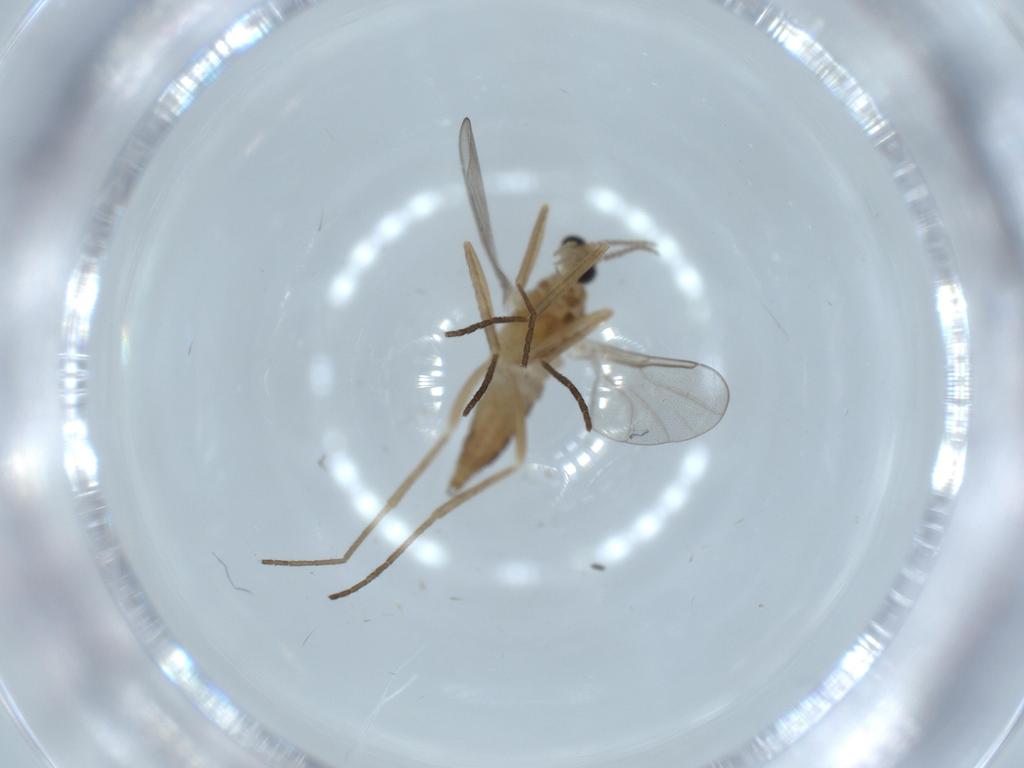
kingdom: Animalia
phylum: Arthropoda
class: Insecta
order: Diptera
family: Cecidomyiidae
